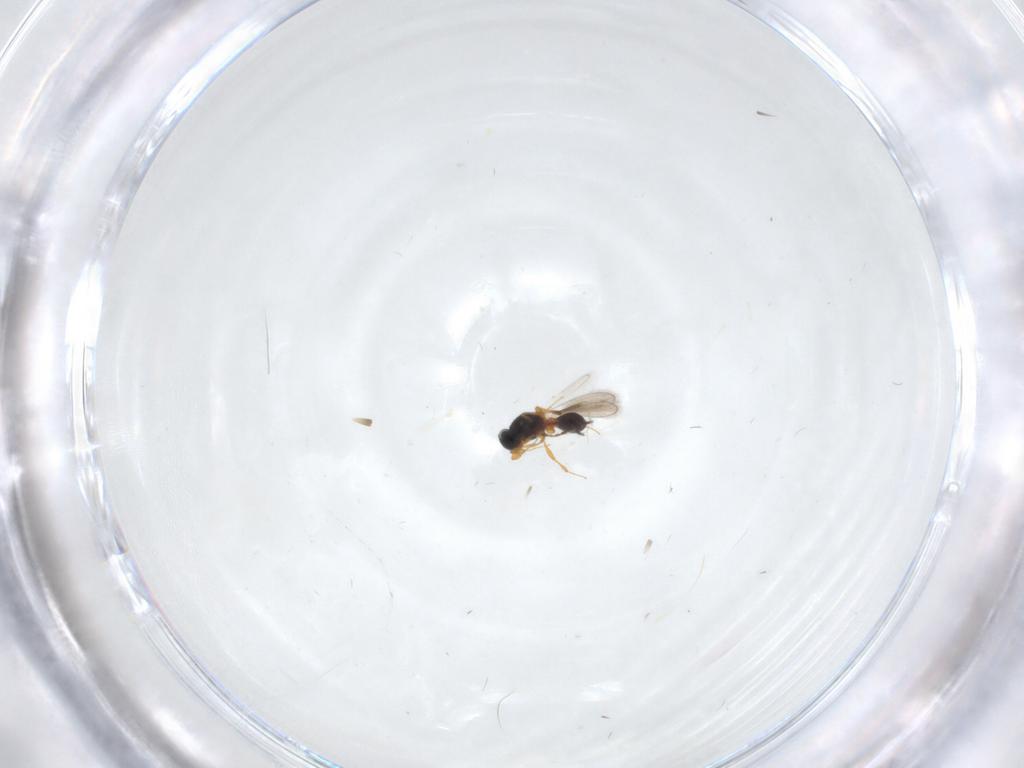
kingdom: Animalia
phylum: Arthropoda
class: Insecta
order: Hymenoptera
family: Platygastridae
